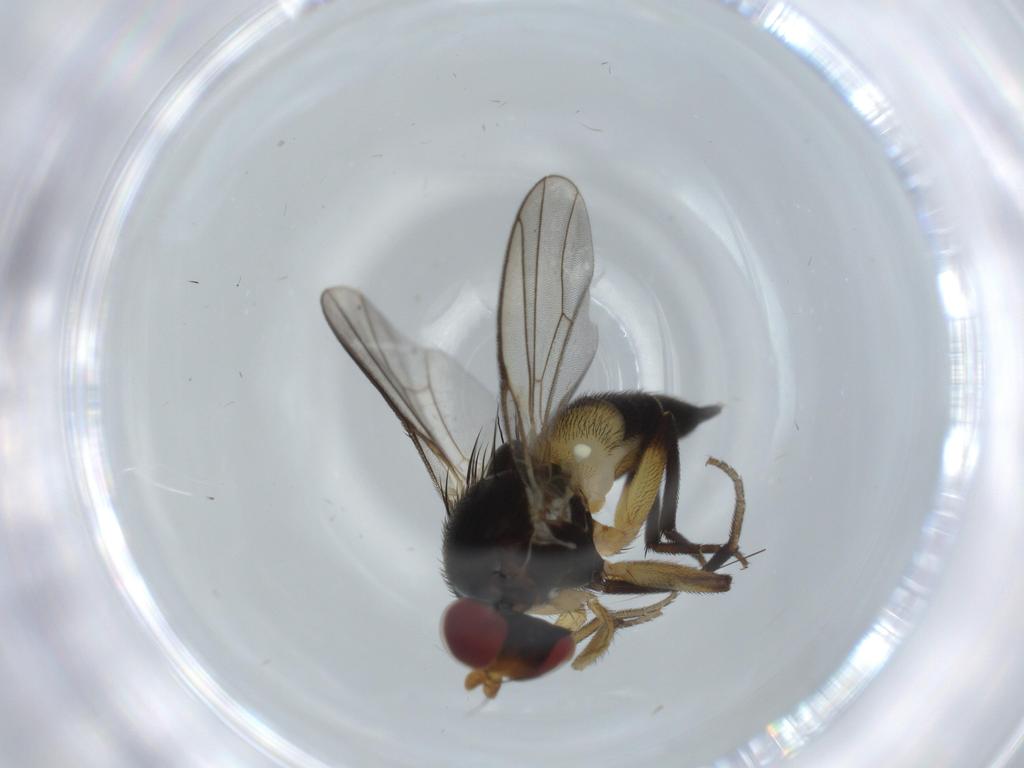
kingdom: Animalia
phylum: Arthropoda
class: Insecta
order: Diptera
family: Agromyzidae
